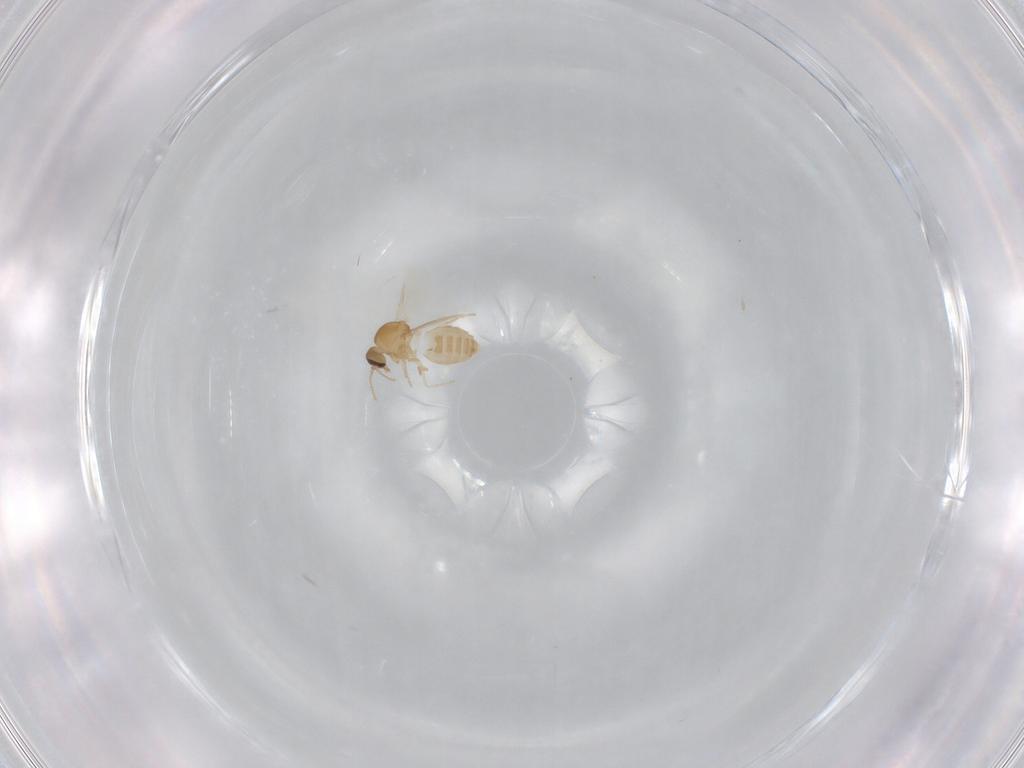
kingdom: Animalia
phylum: Arthropoda
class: Insecta
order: Diptera
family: Ceratopogonidae
